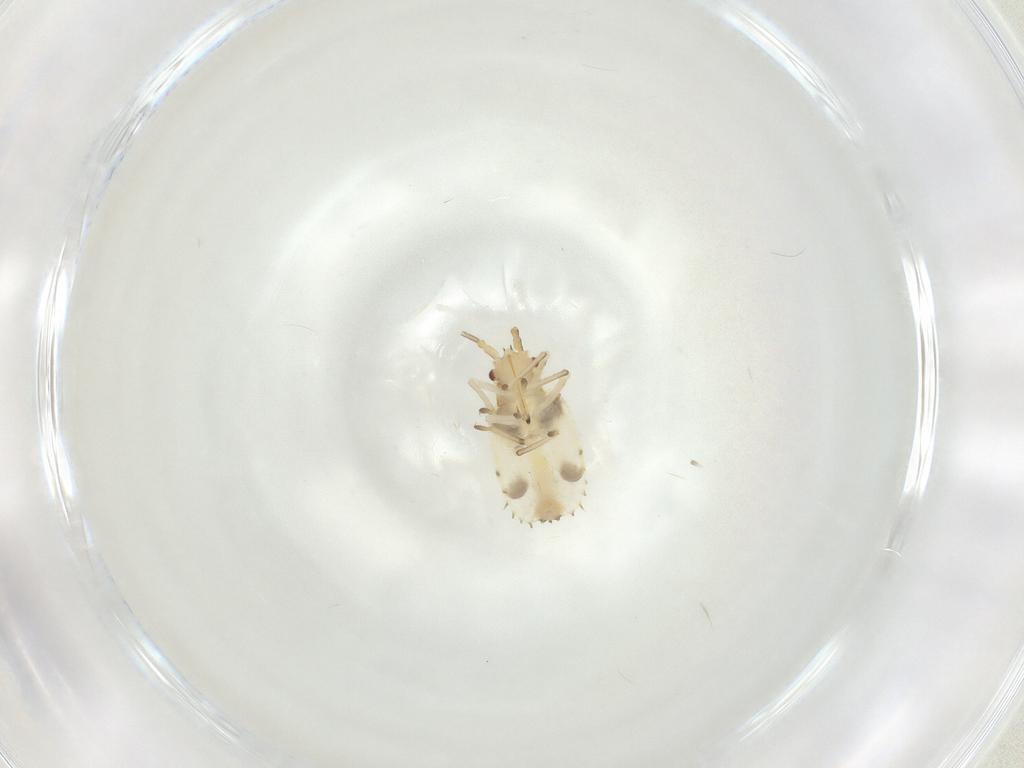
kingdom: Animalia
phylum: Arthropoda
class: Insecta
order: Hemiptera
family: Tingidae
